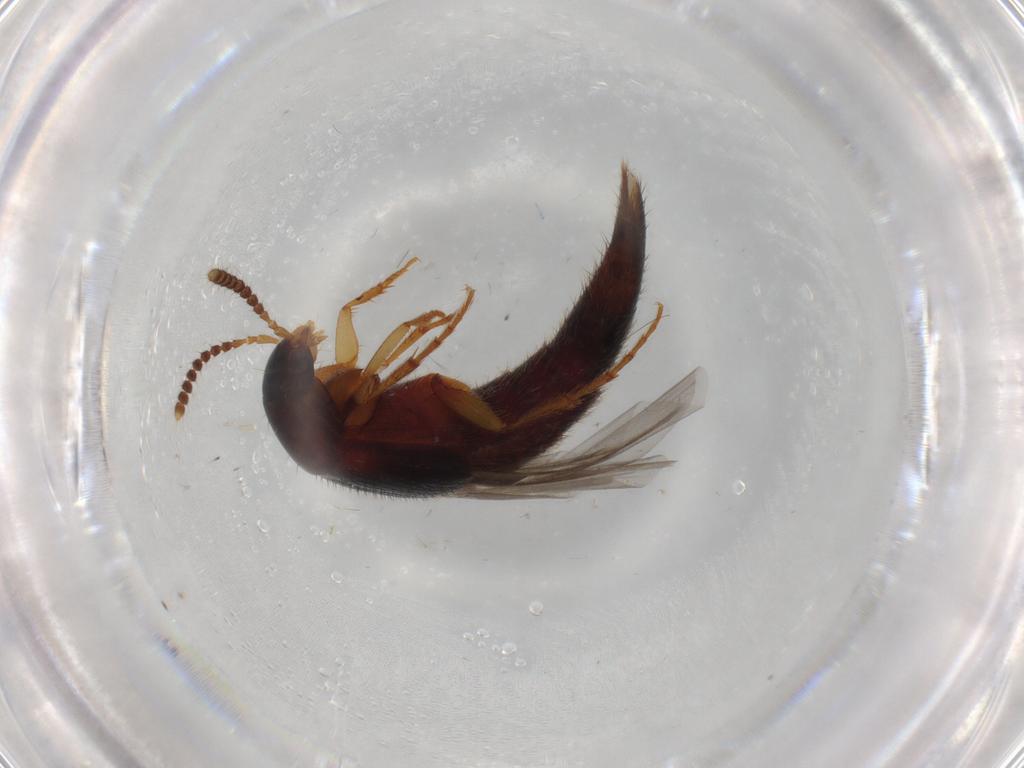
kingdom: Animalia
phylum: Arthropoda
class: Insecta
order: Coleoptera
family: Staphylinidae
